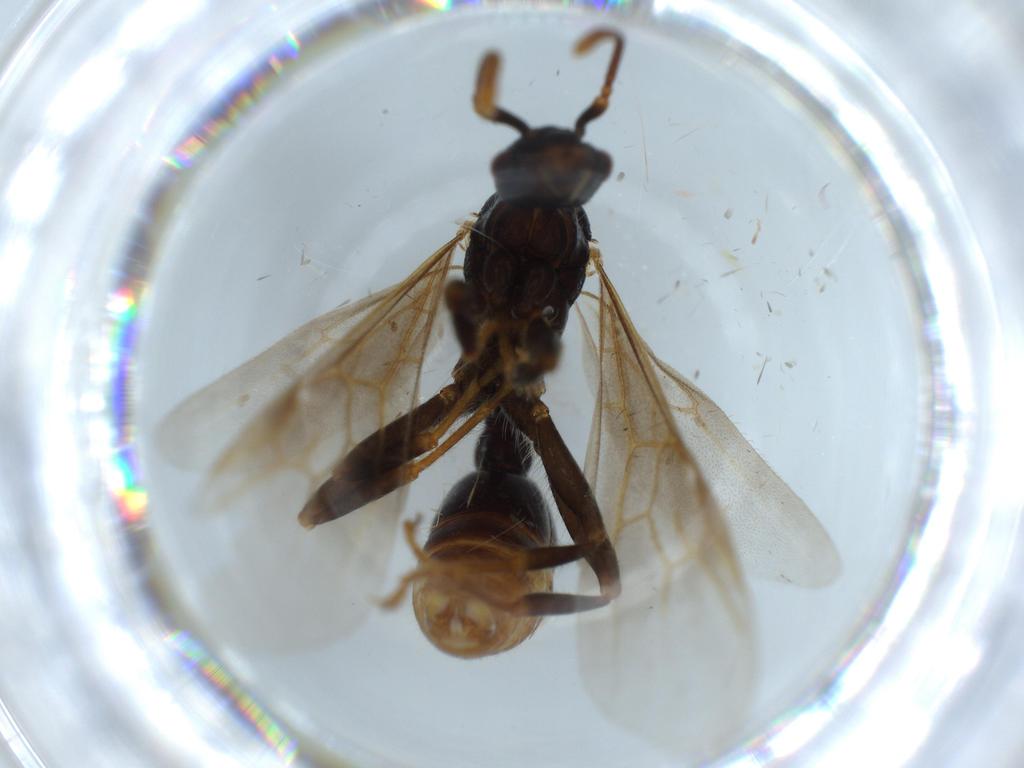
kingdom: Animalia
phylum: Arthropoda
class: Insecta
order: Hymenoptera
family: Formicidae
